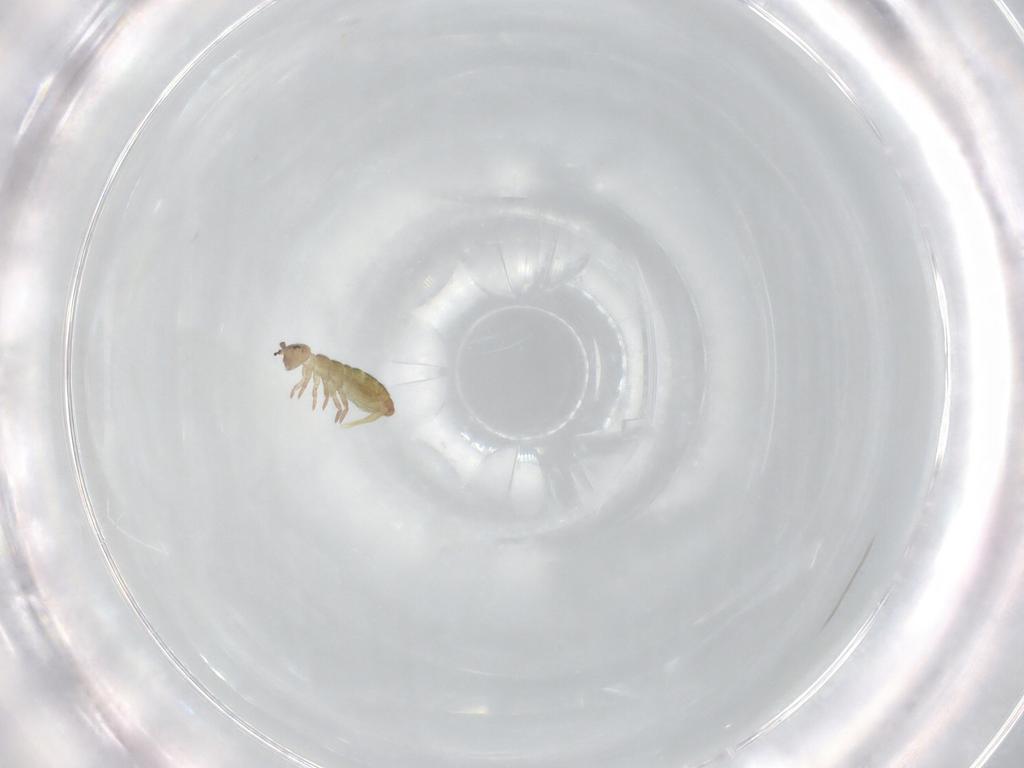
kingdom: Animalia
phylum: Arthropoda
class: Collembola
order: Entomobryomorpha
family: Isotomidae
